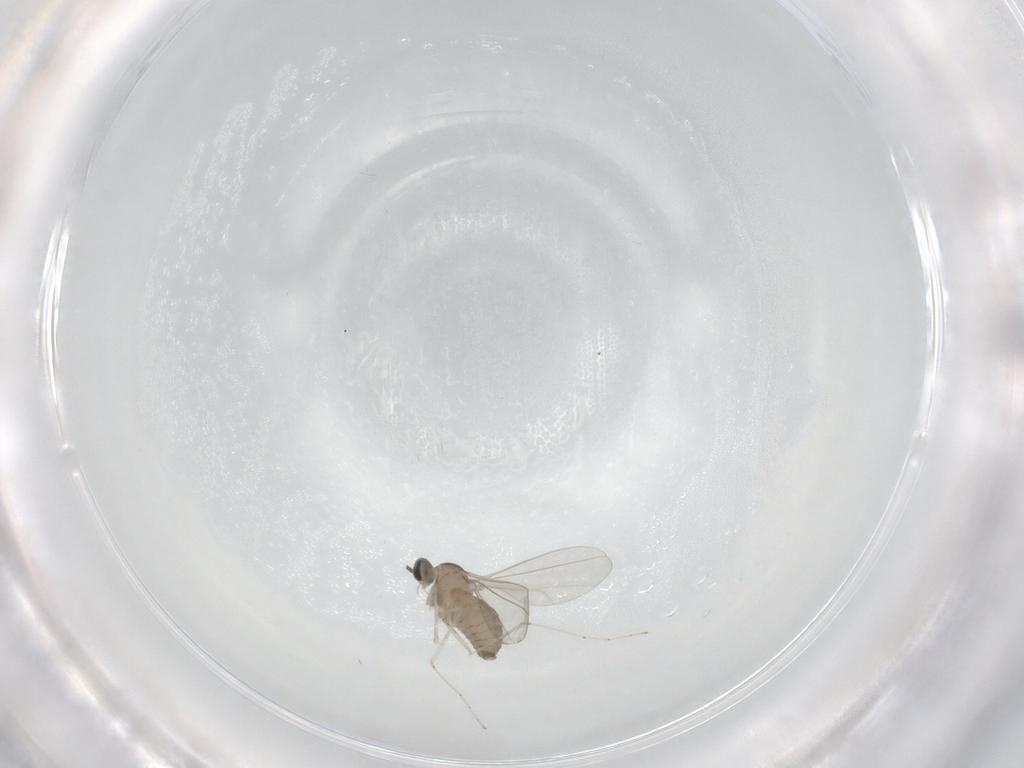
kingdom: Animalia
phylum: Arthropoda
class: Insecta
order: Diptera
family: Cecidomyiidae
